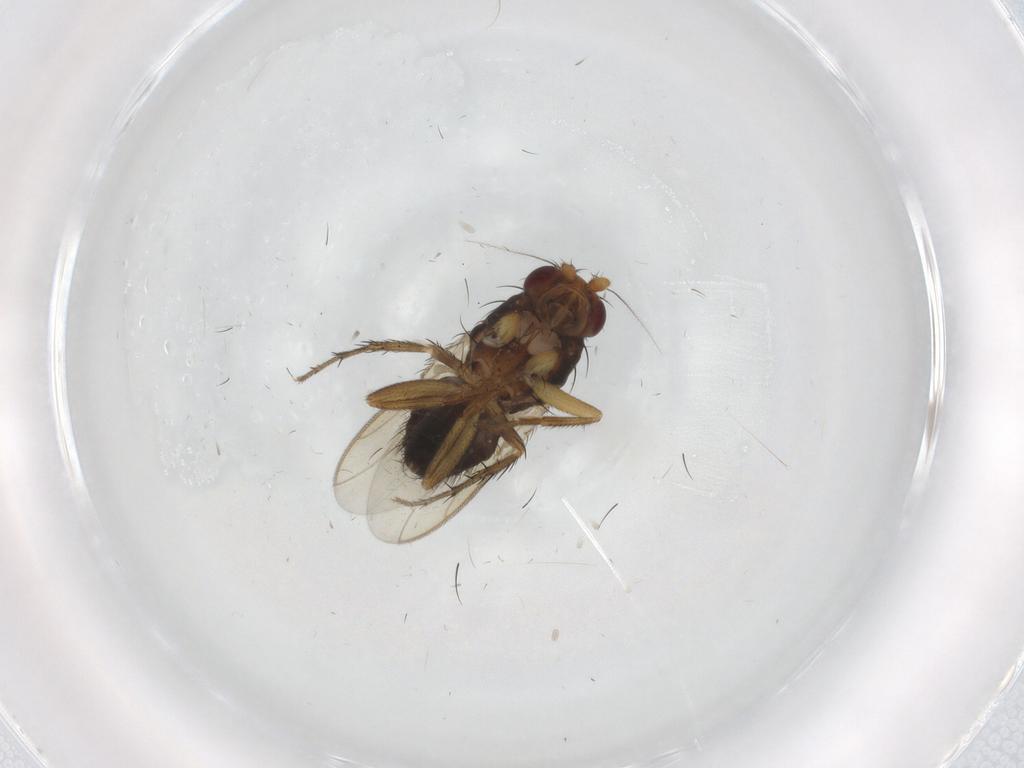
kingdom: Animalia
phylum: Arthropoda
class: Insecta
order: Diptera
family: Sphaeroceridae
